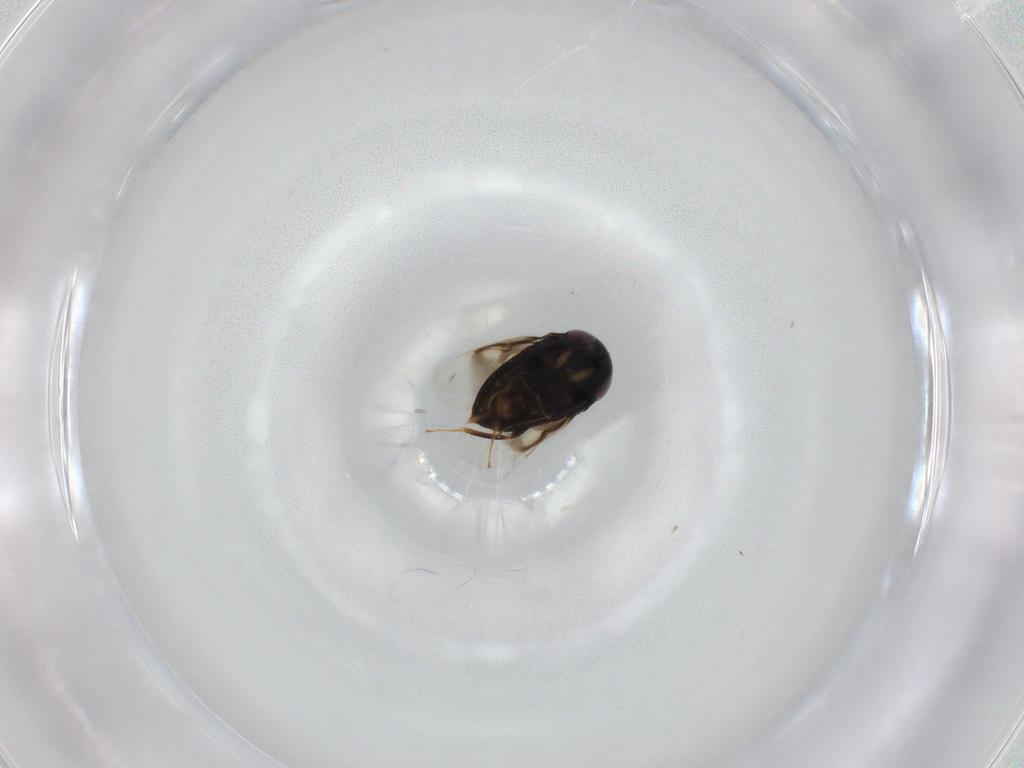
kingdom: Animalia
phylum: Arthropoda
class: Insecta
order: Hymenoptera
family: Signiphoridae
